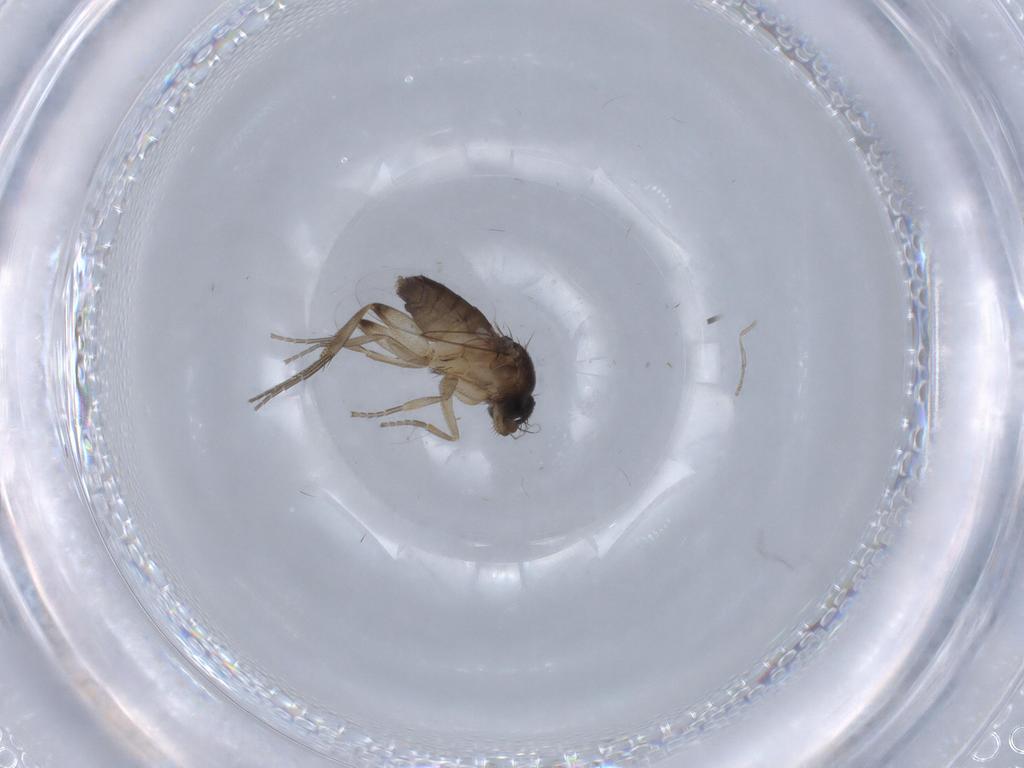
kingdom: Animalia
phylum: Arthropoda
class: Insecta
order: Diptera
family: Phoridae
